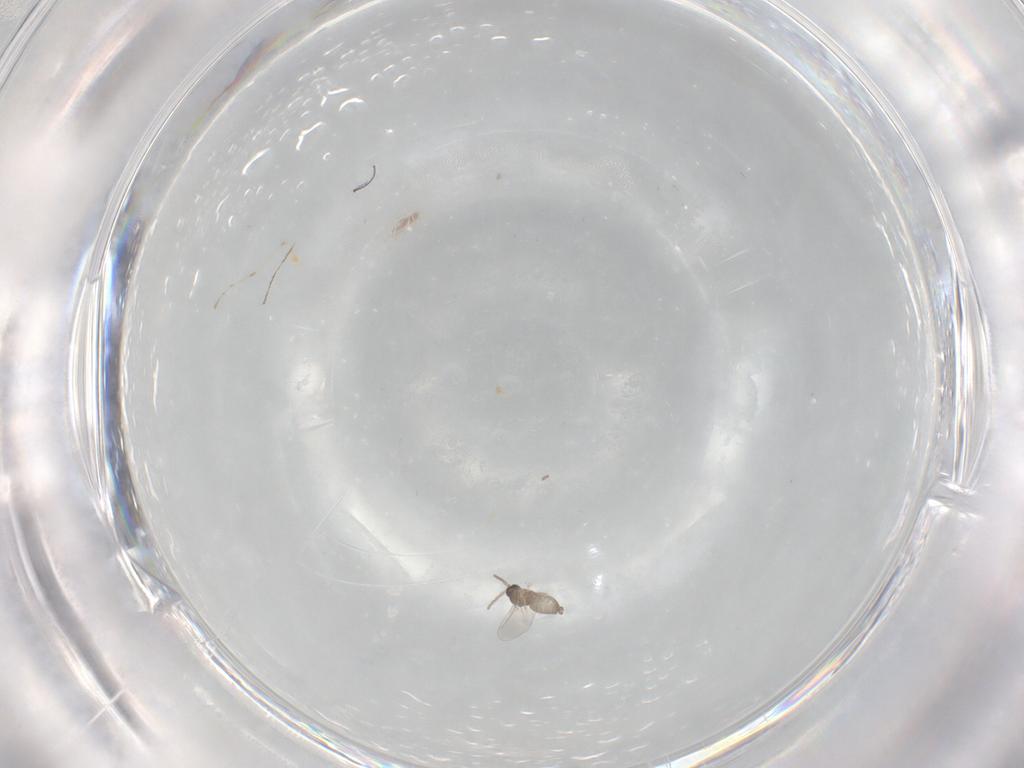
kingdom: Animalia
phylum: Arthropoda
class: Insecta
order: Diptera
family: Cecidomyiidae
